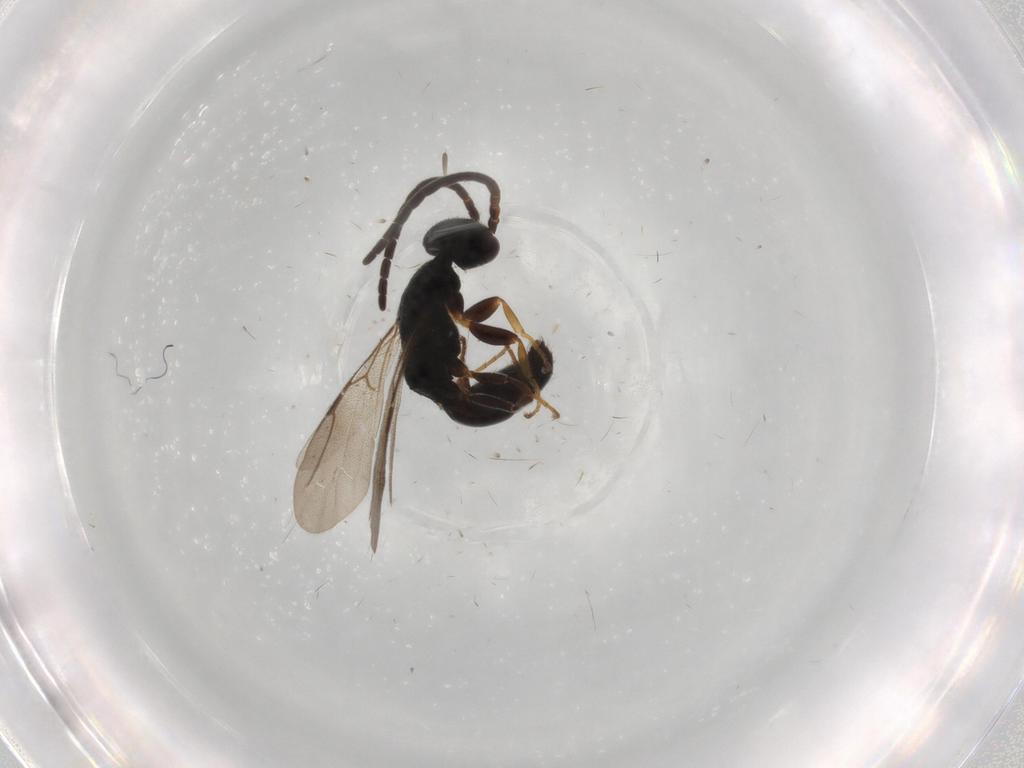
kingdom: Animalia
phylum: Arthropoda
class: Insecta
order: Hymenoptera
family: Bethylidae
